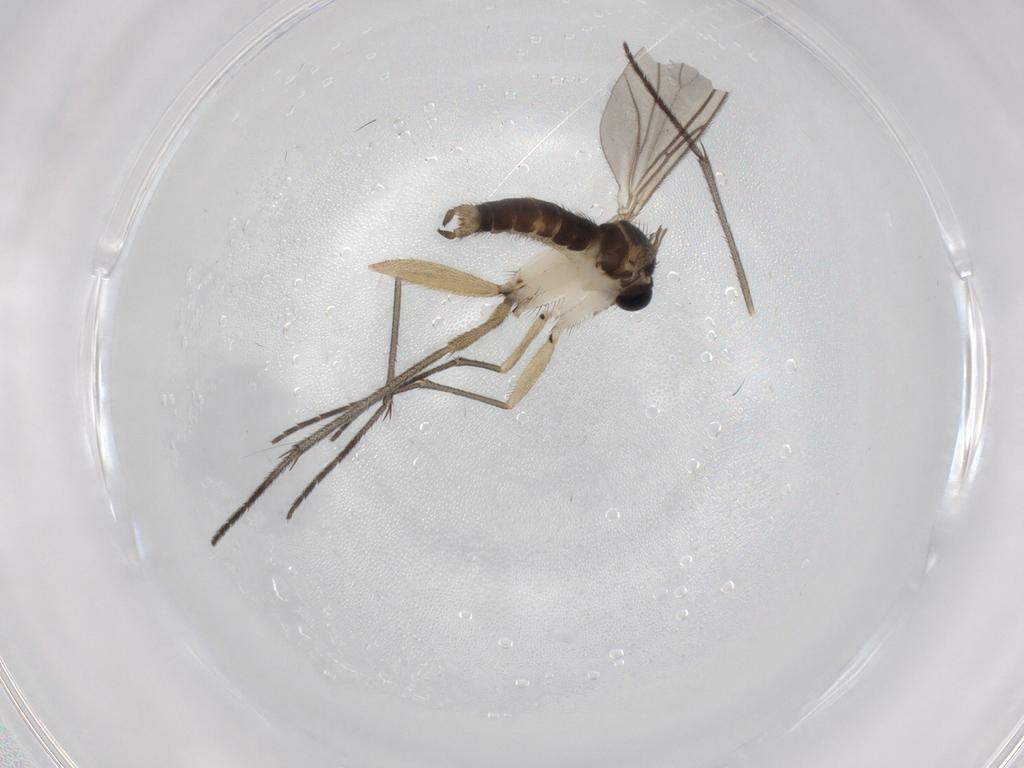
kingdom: Animalia
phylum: Arthropoda
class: Insecta
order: Diptera
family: Sciaridae
